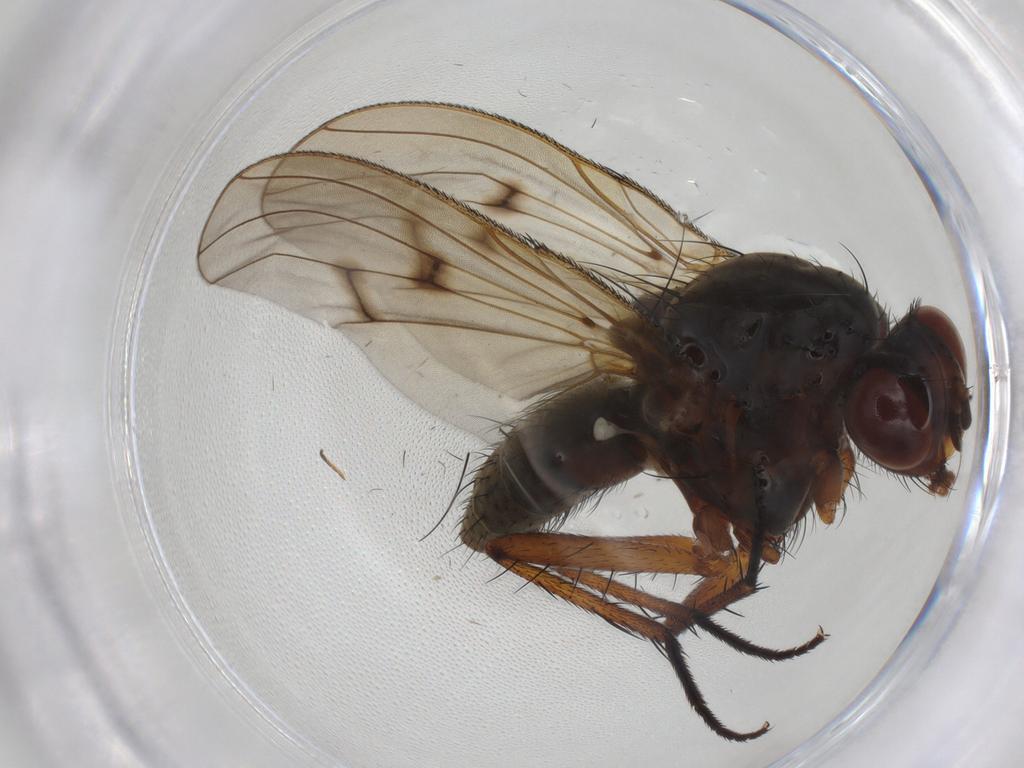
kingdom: Animalia
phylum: Arthropoda
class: Insecta
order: Diptera
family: Anthomyiidae
